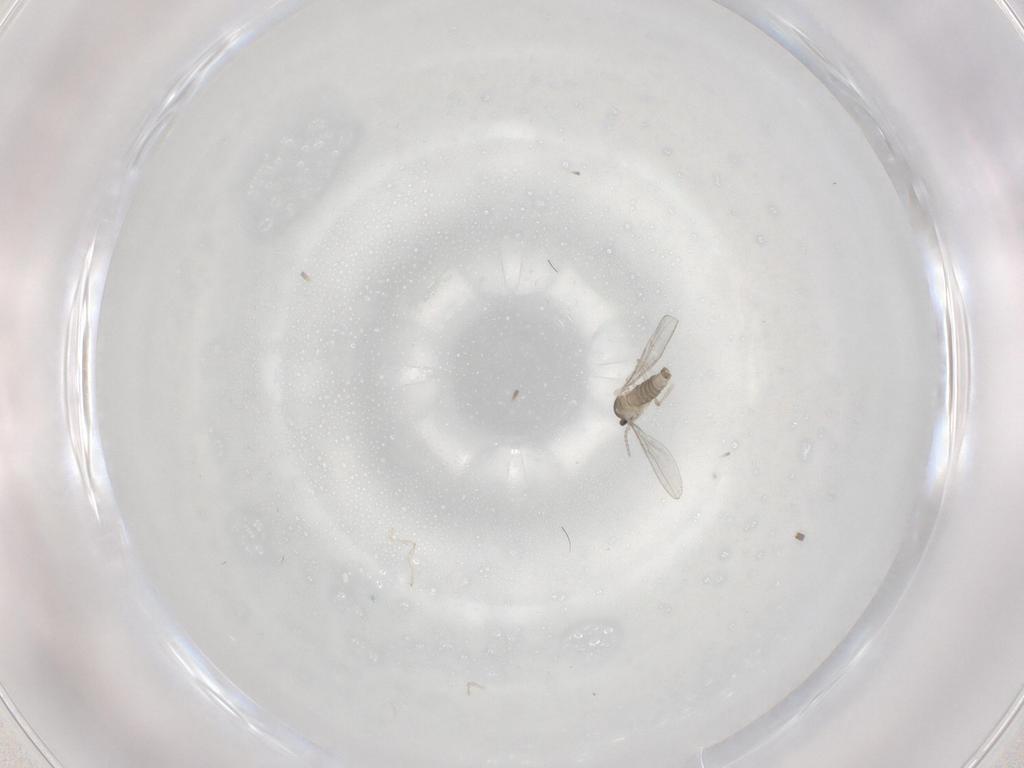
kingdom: Animalia
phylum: Arthropoda
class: Insecta
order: Diptera
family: Cecidomyiidae
